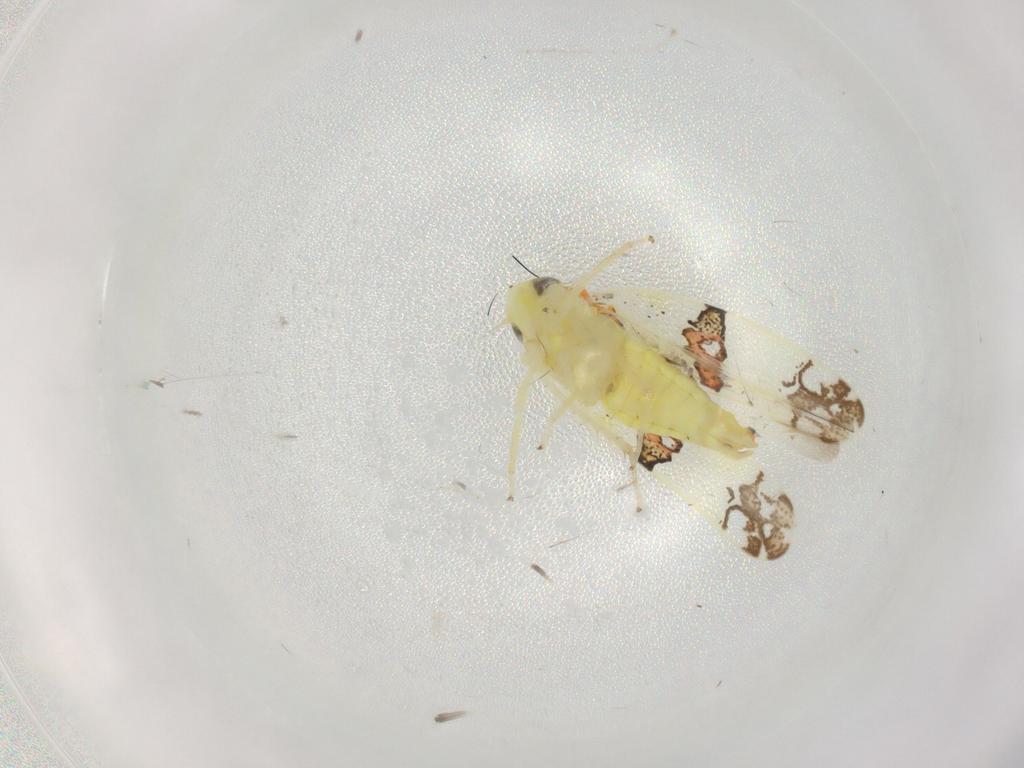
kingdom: Animalia
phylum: Arthropoda
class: Insecta
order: Hemiptera
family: Cicadellidae
